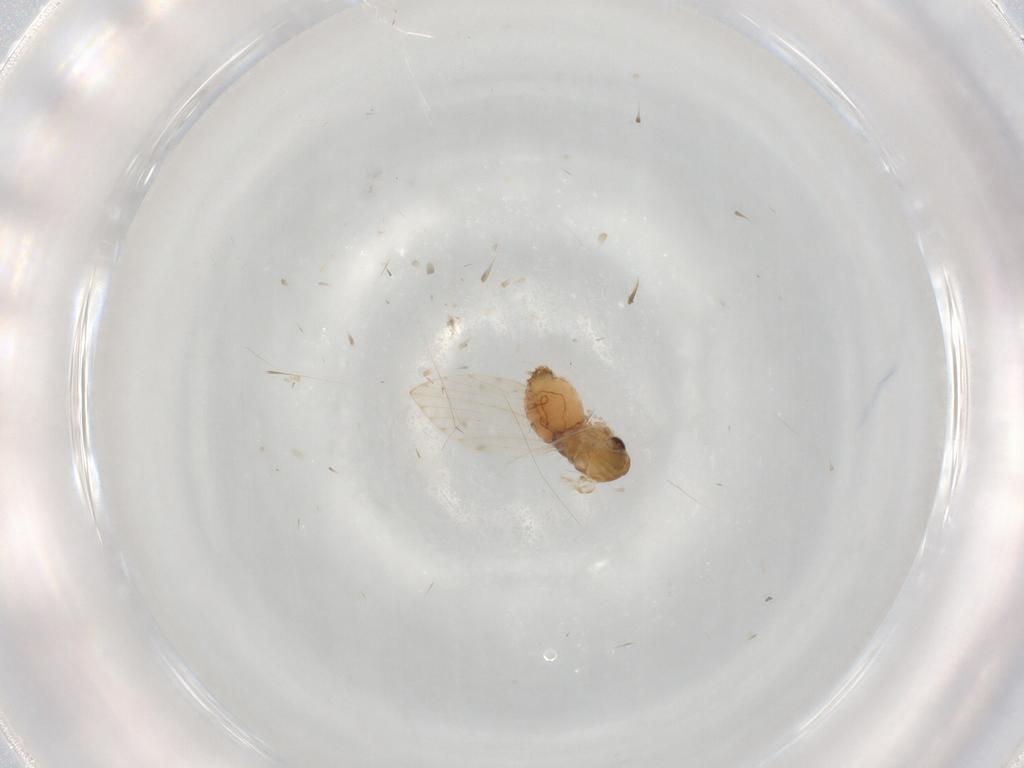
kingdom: Animalia
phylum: Arthropoda
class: Insecta
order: Diptera
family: Psychodidae
